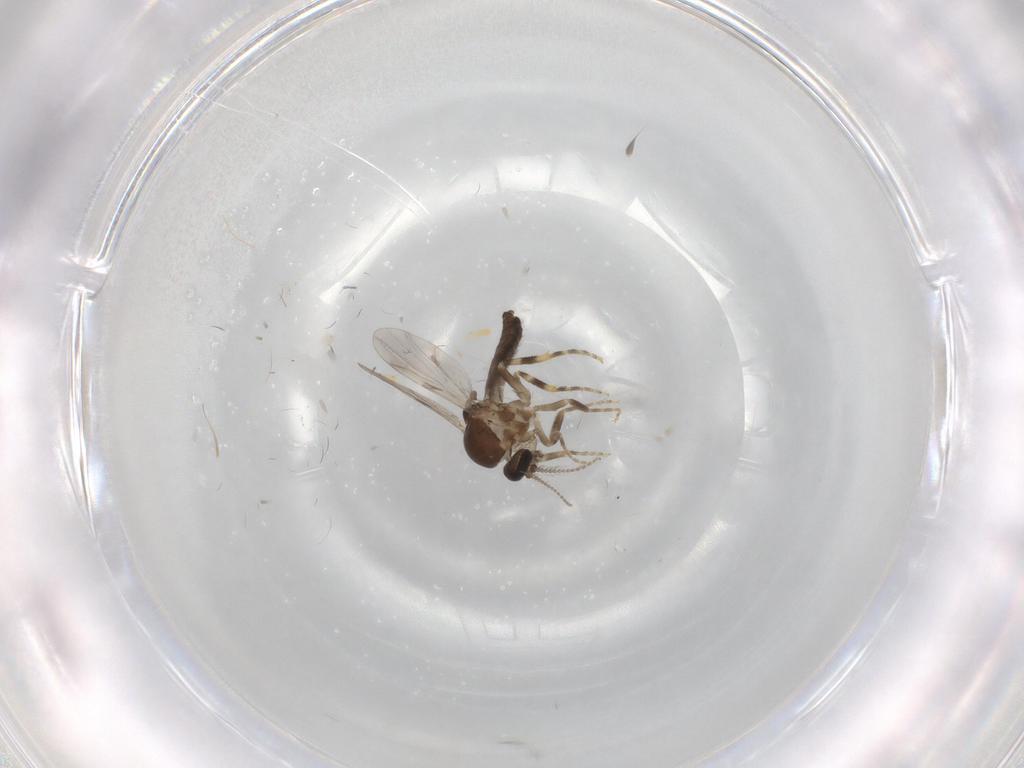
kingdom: Animalia
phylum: Arthropoda
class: Insecta
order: Diptera
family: Ceratopogonidae
